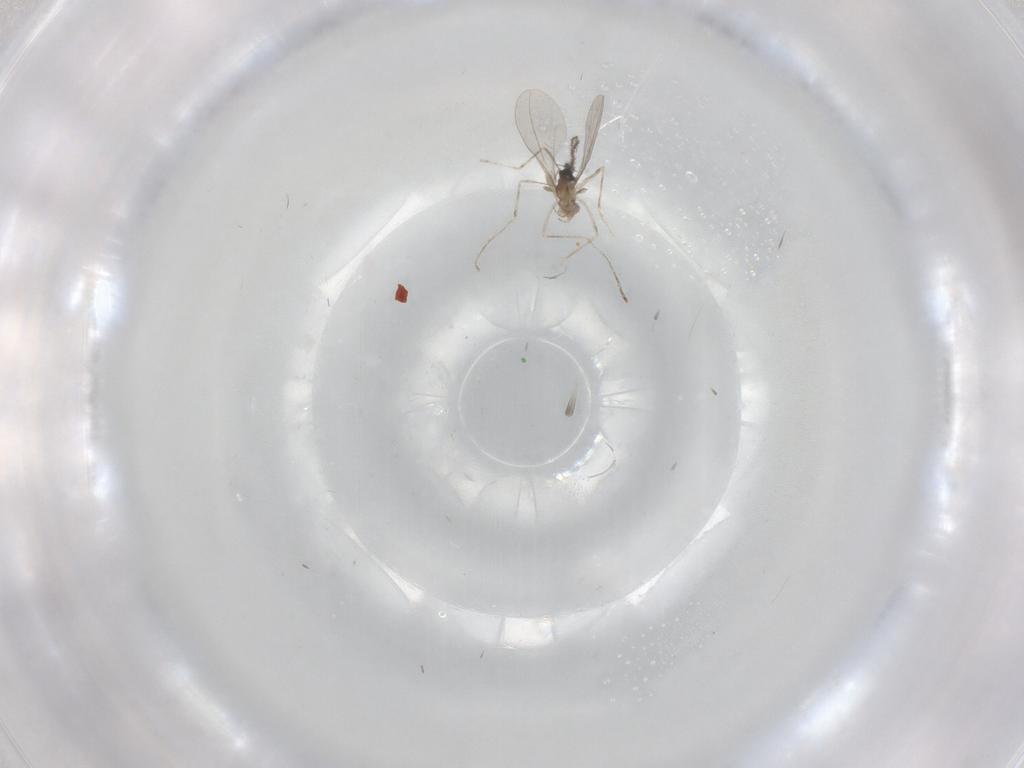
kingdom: Animalia
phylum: Arthropoda
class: Insecta
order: Diptera
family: Cecidomyiidae
